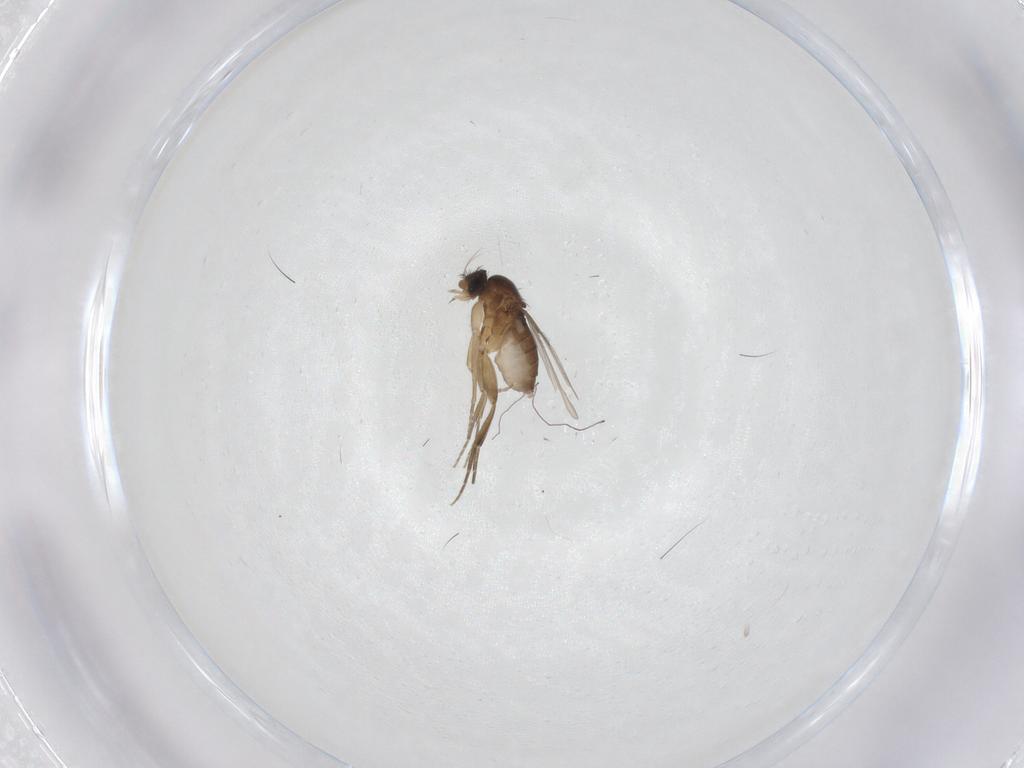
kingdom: Animalia
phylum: Arthropoda
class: Insecta
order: Diptera
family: Phoridae
